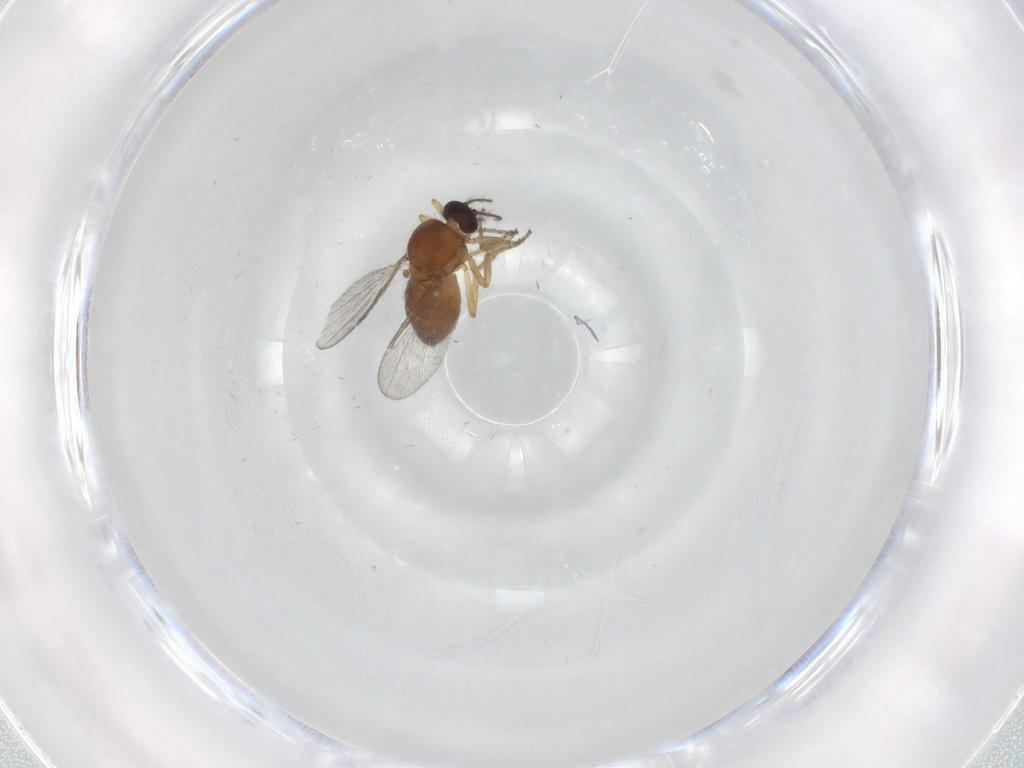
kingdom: Animalia
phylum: Arthropoda
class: Insecta
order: Diptera
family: Ceratopogonidae
